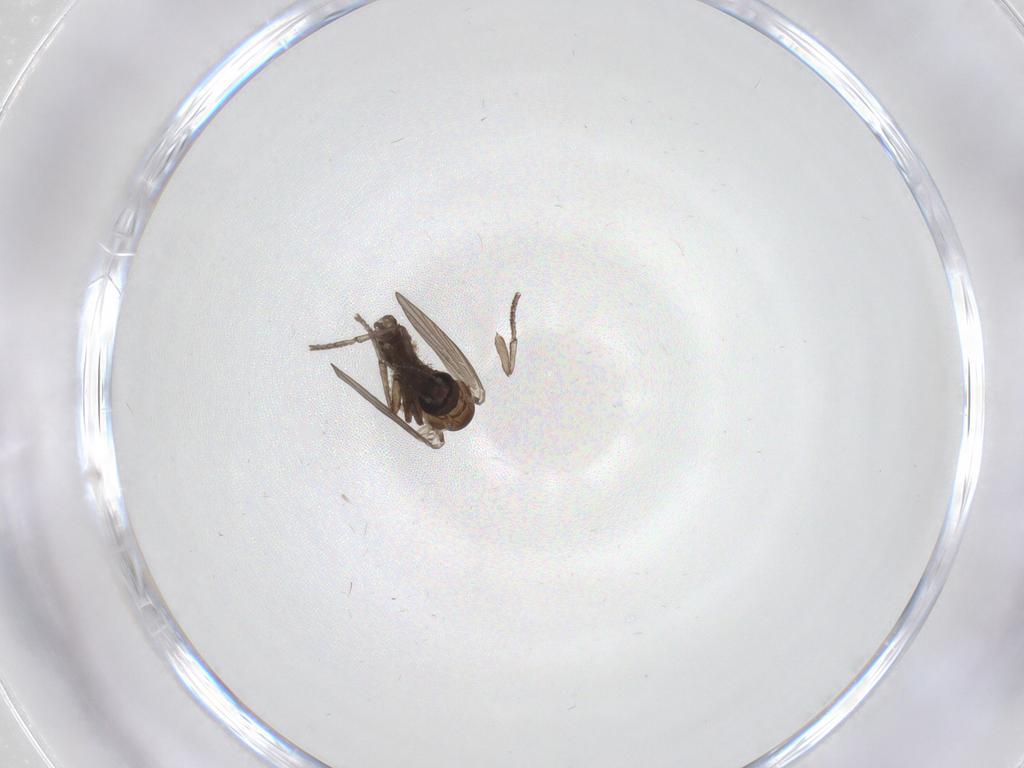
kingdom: Animalia
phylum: Arthropoda
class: Insecta
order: Diptera
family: Psychodidae
